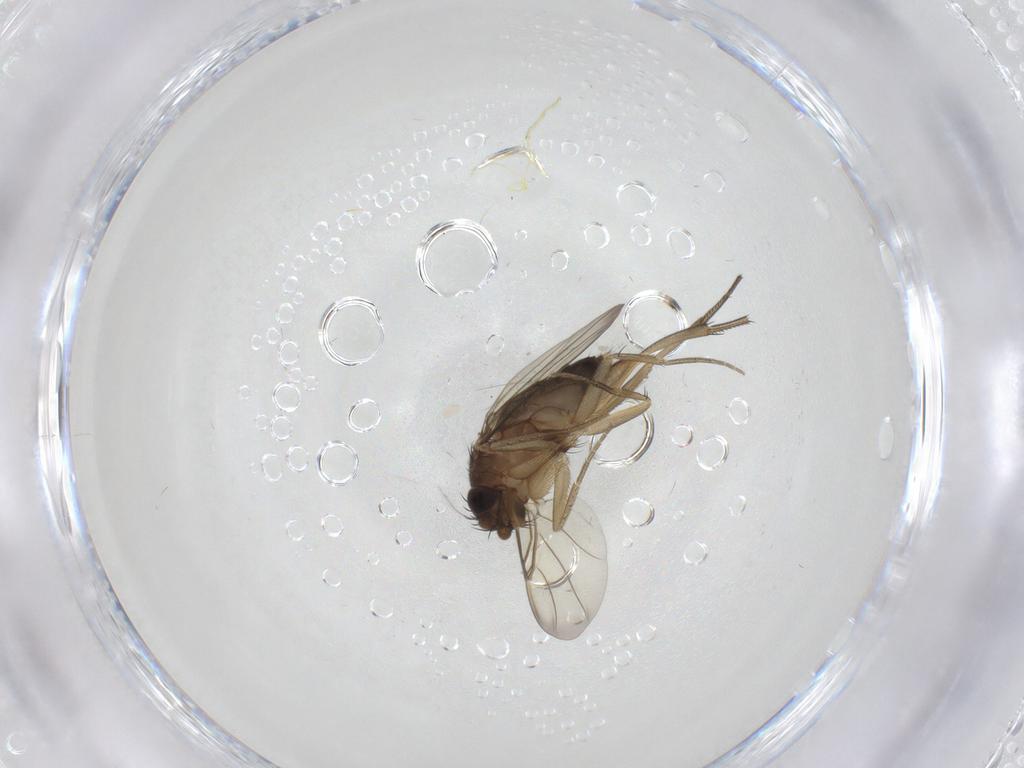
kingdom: Animalia
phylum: Arthropoda
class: Insecta
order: Diptera
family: Phoridae
